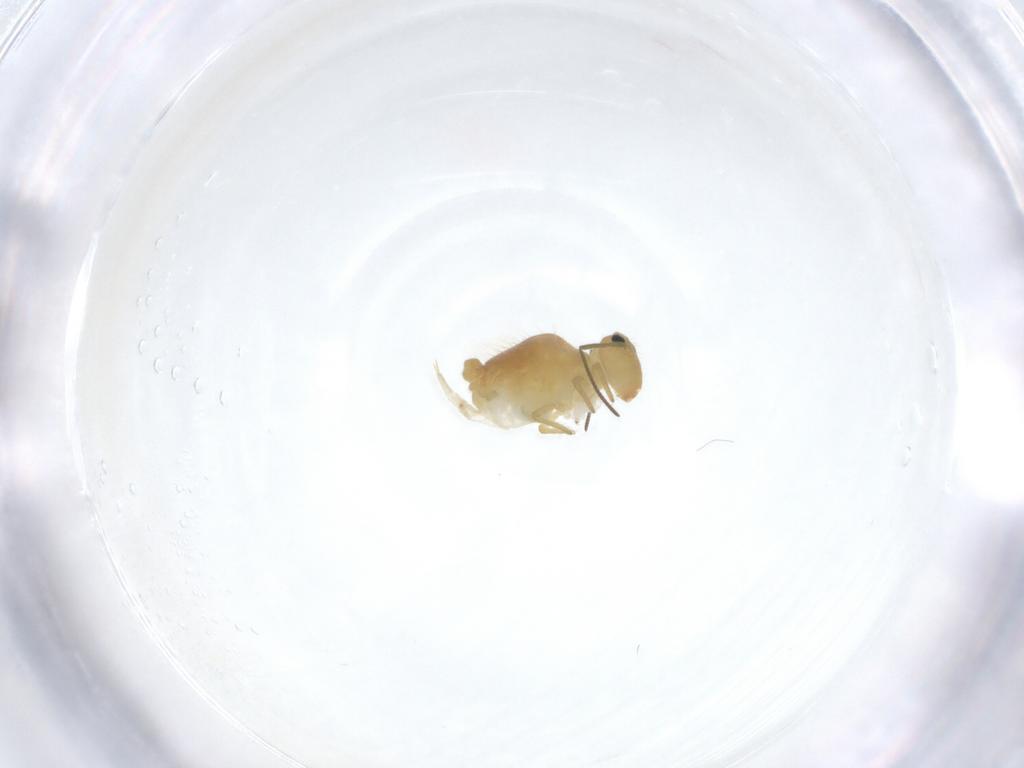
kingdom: Animalia
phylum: Arthropoda
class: Collembola
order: Symphypleona
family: Sminthuridae
